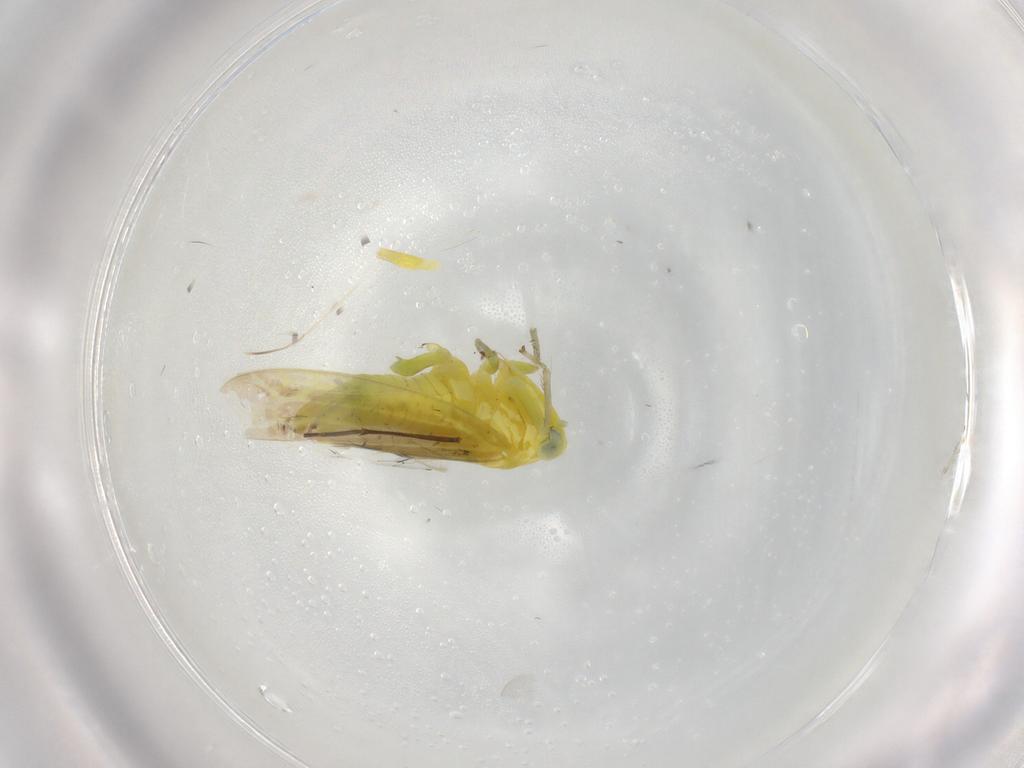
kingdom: Animalia
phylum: Arthropoda
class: Insecta
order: Hemiptera
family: Cicadellidae
